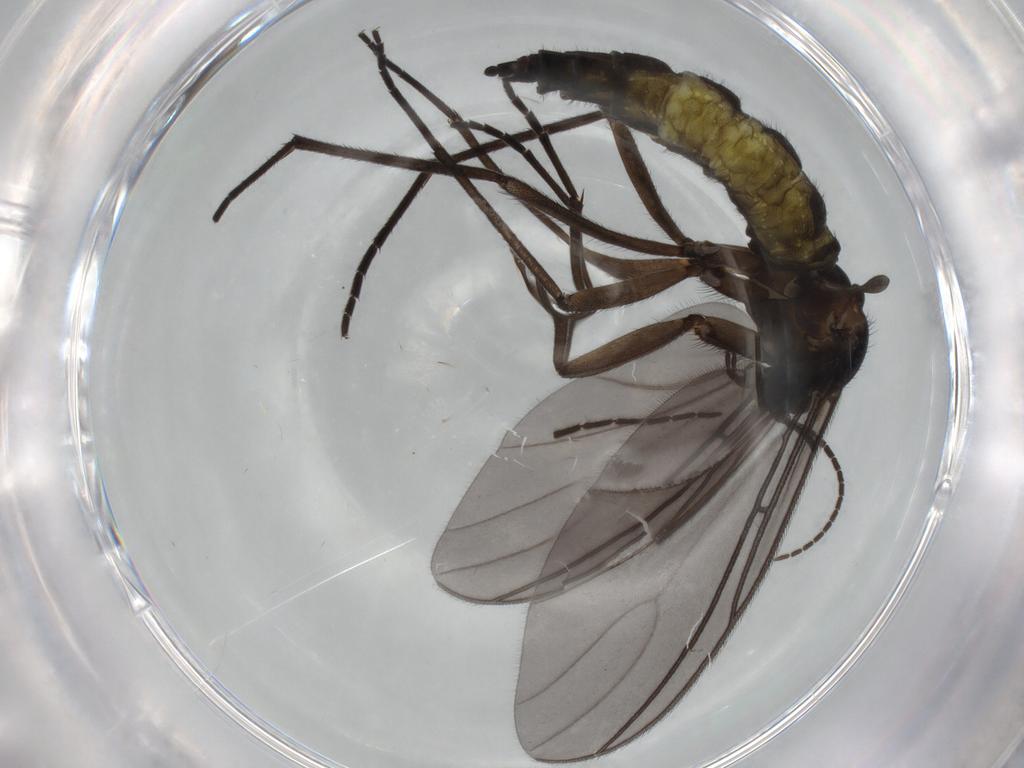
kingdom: Animalia
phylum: Arthropoda
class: Insecta
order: Diptera
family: Sciaridae
